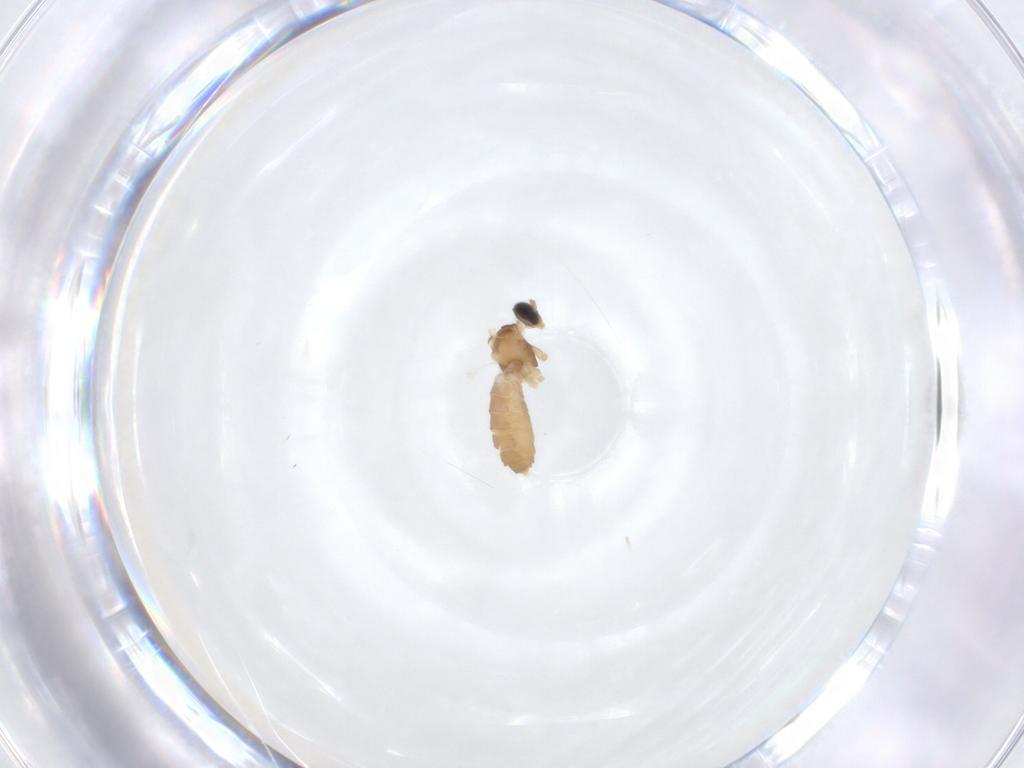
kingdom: Animalia
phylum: Arthropoda
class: Insecta
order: Diptera
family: Cecidomyiidae
